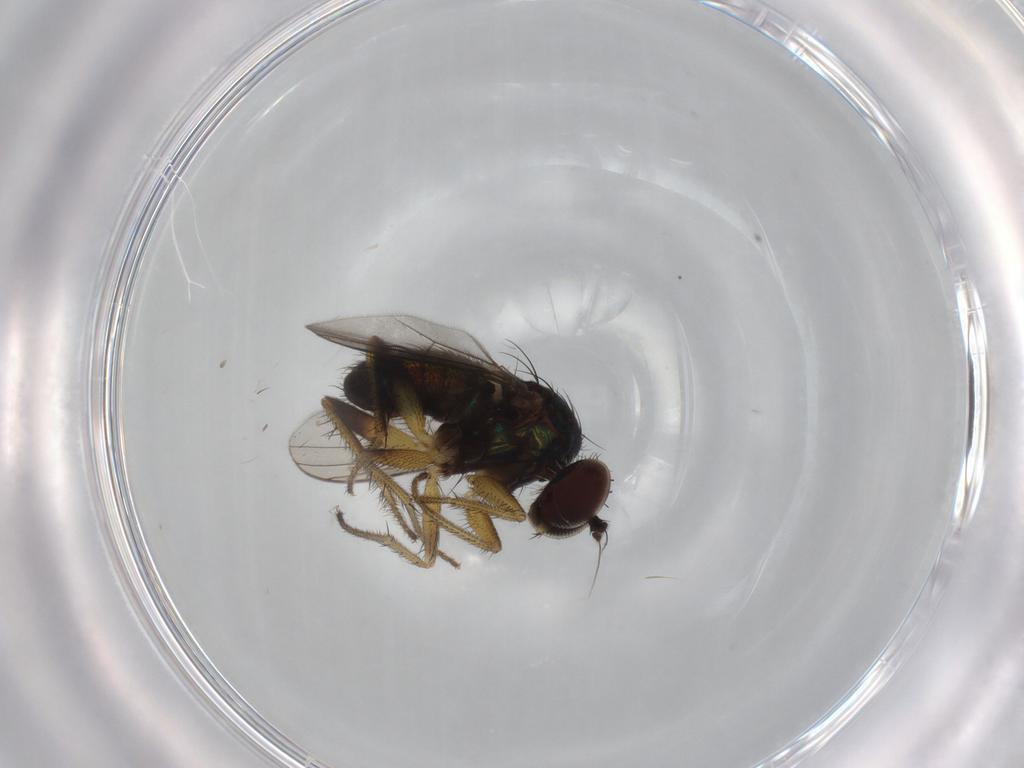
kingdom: Animalia
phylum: Arthropoda
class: Insecta
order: Diptera
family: Dolichopodidae
